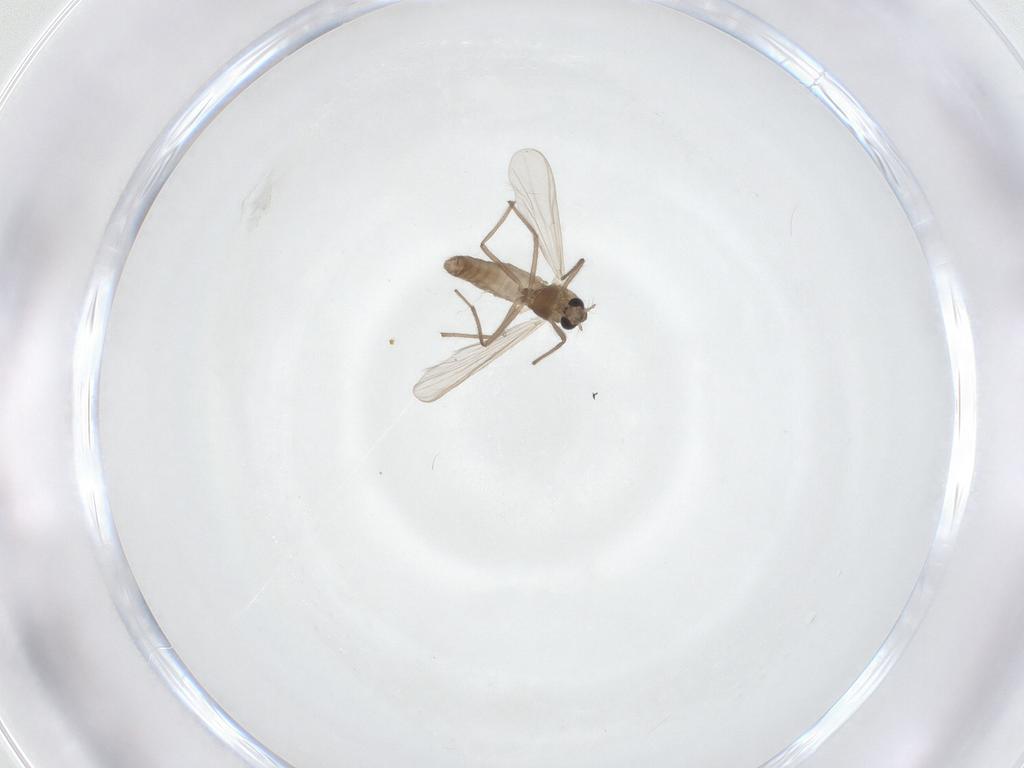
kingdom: Animalia
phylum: Arthropoda
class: Insecta
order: Diptera
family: Chironomidae
